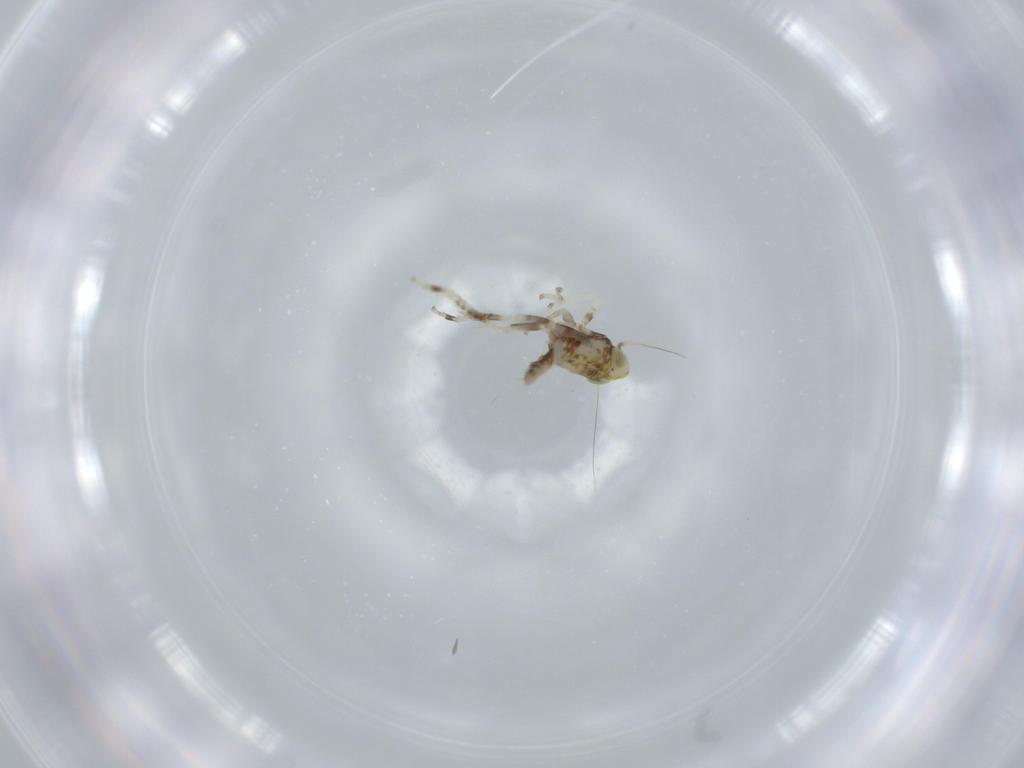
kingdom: Animalia
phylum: Arthropoda
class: Insecta
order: Hemiptera
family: Cicadellidae
